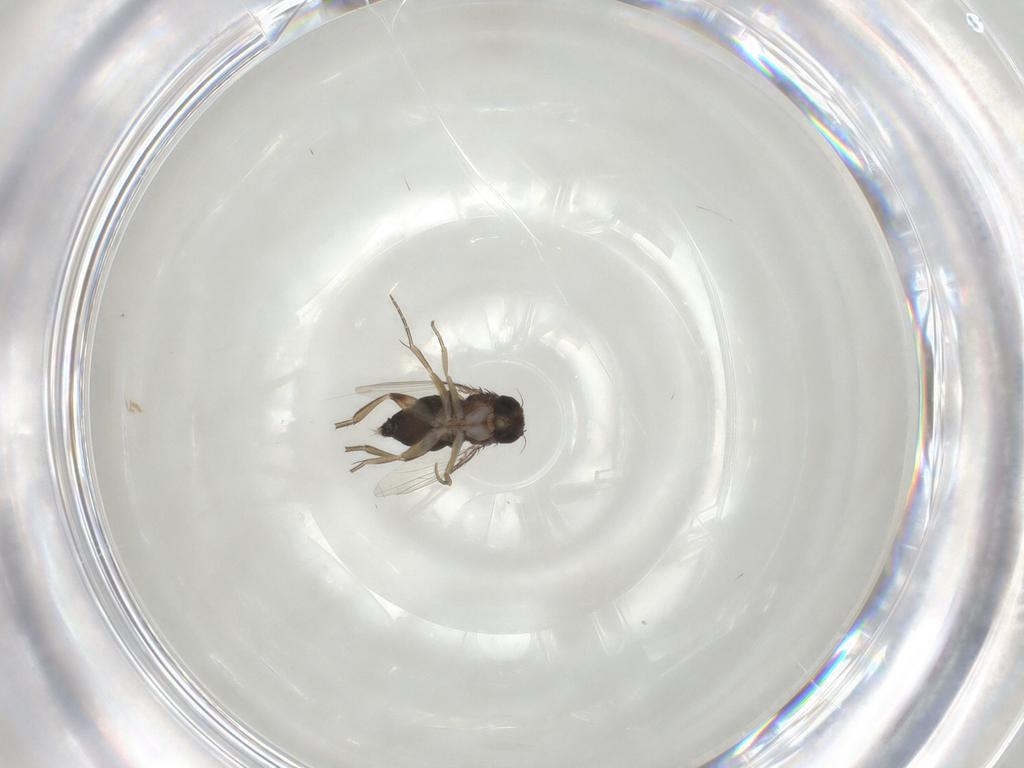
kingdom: Animalia
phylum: Arthropoda
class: Insecta
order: Diptera
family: Phoridae
